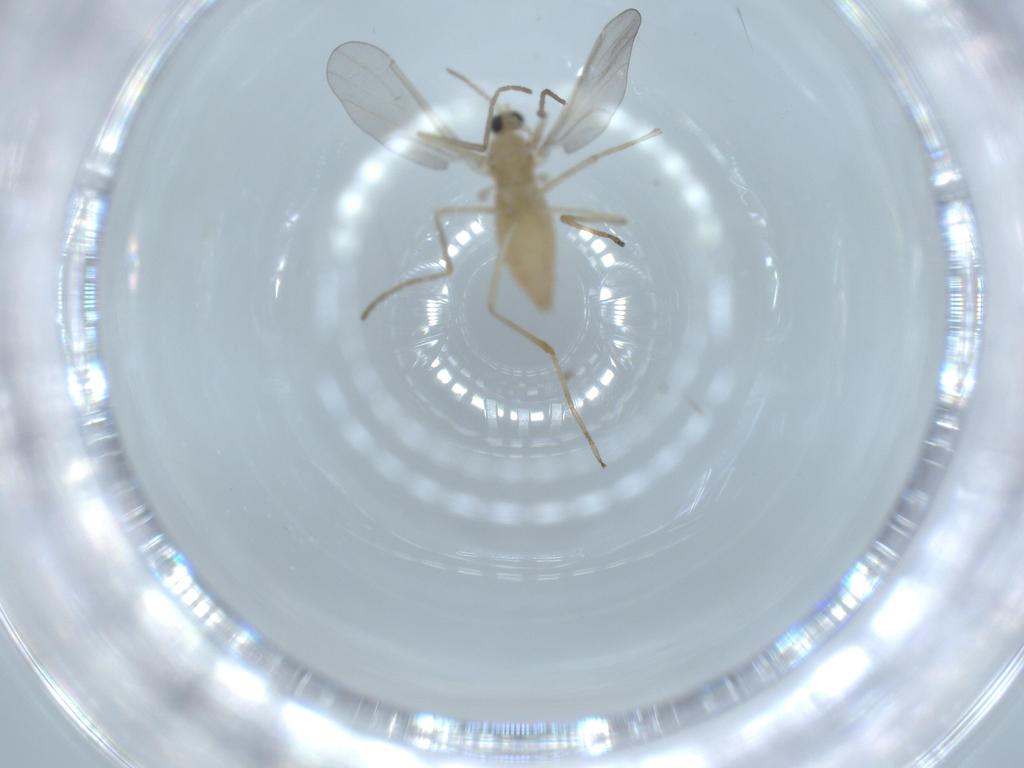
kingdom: Animalia
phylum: Arthropoda
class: Insecta
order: Diptera
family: Cecidomyiidae
